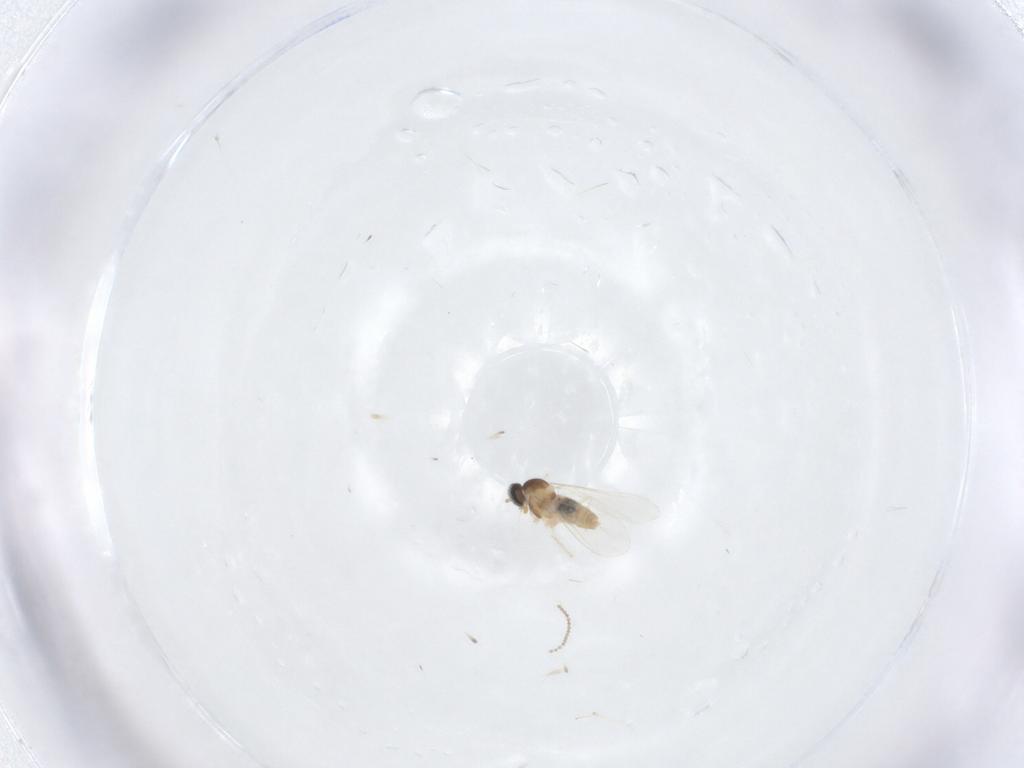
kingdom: Animalia
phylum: Arthropoda
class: Insecta
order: Diptera
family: Cecidomyiidae
